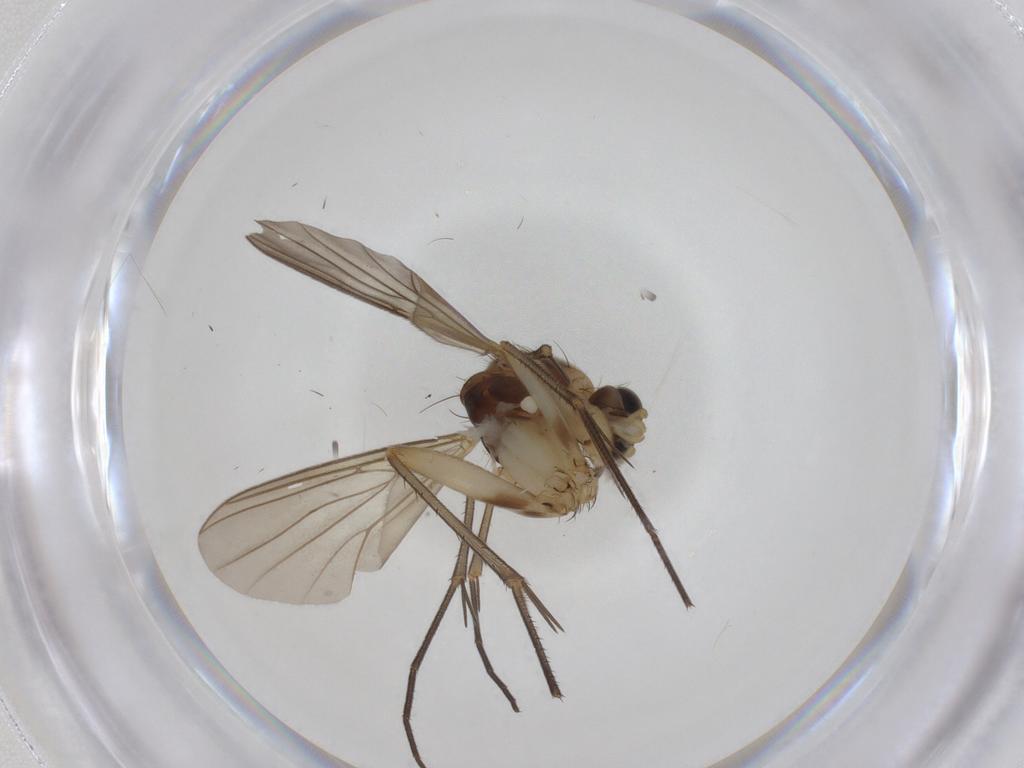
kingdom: Animalia
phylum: Arthropoda
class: Insecta
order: Diptera
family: Mycetophilidae
